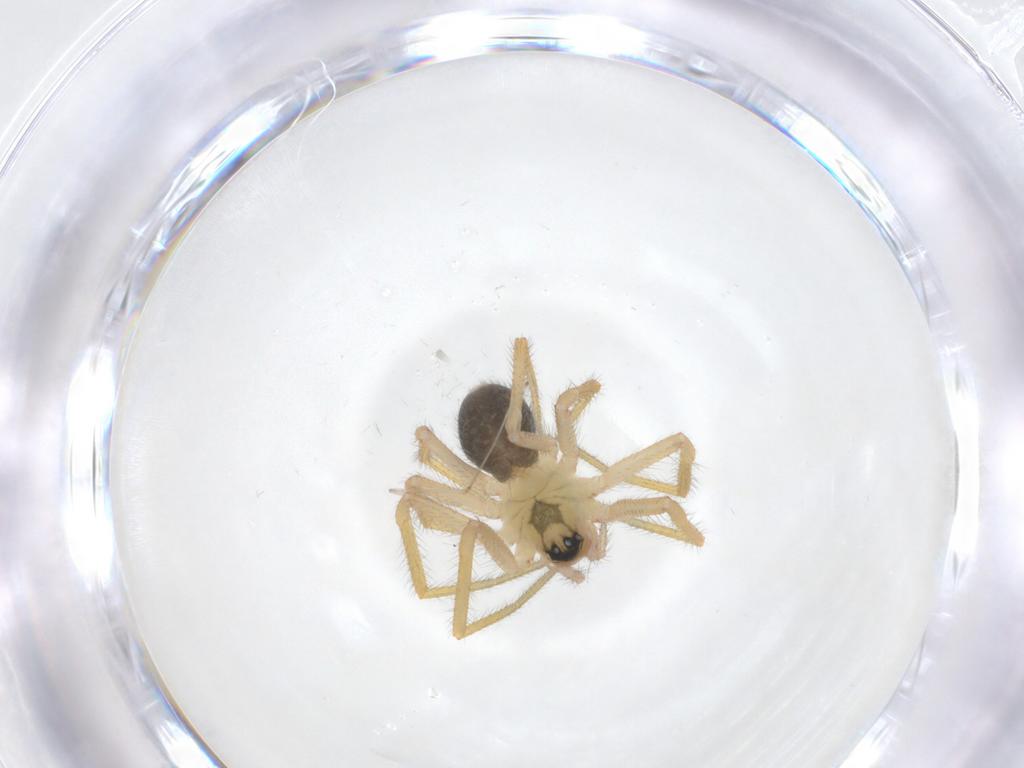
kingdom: Animalia
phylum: Arthropoda
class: Arachnida
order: Araneae
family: Linyphiidae
